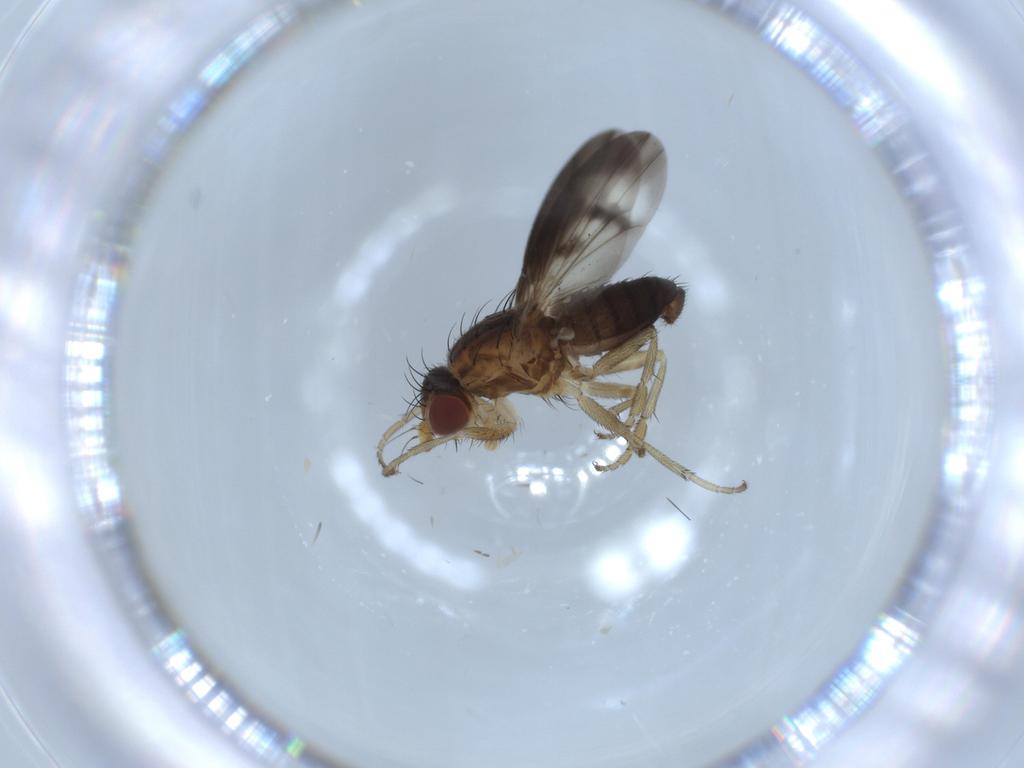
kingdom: Animalia
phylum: Arthropoda
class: Insecta
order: Diptera
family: Heleomyzidae
